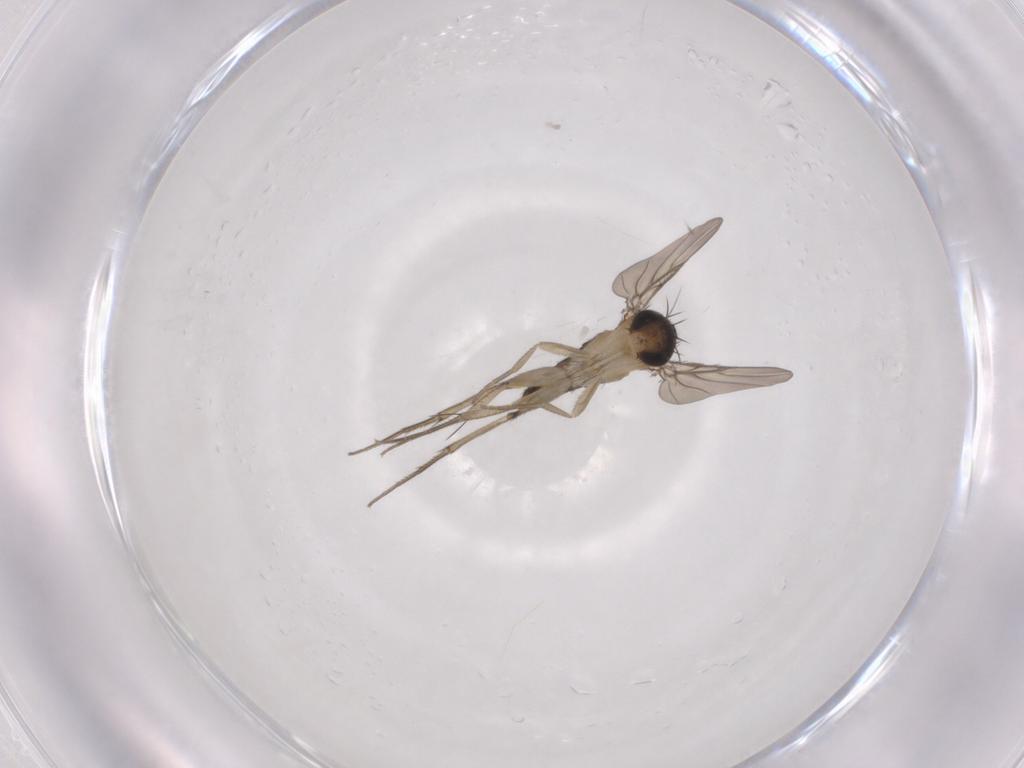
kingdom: Animalia
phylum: Arthropoda
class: Insecta
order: Diptera
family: Phoridae
